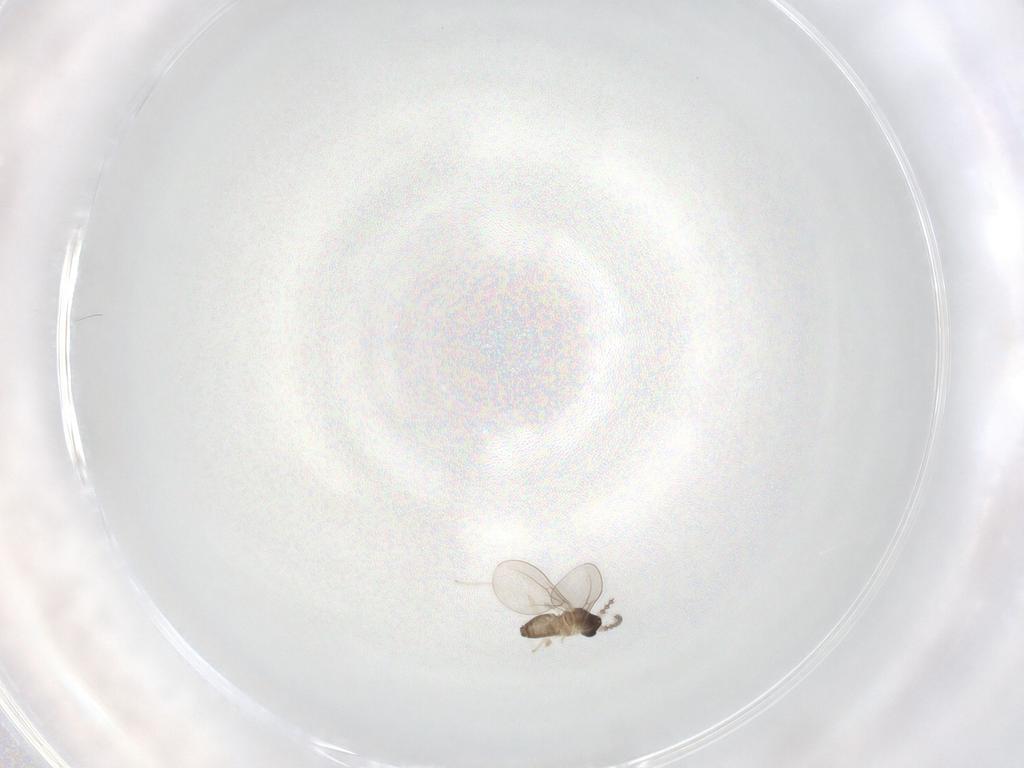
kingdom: Animalia
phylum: Arthropoda
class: Insecta
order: Diptera
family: Cecidomyiidae
